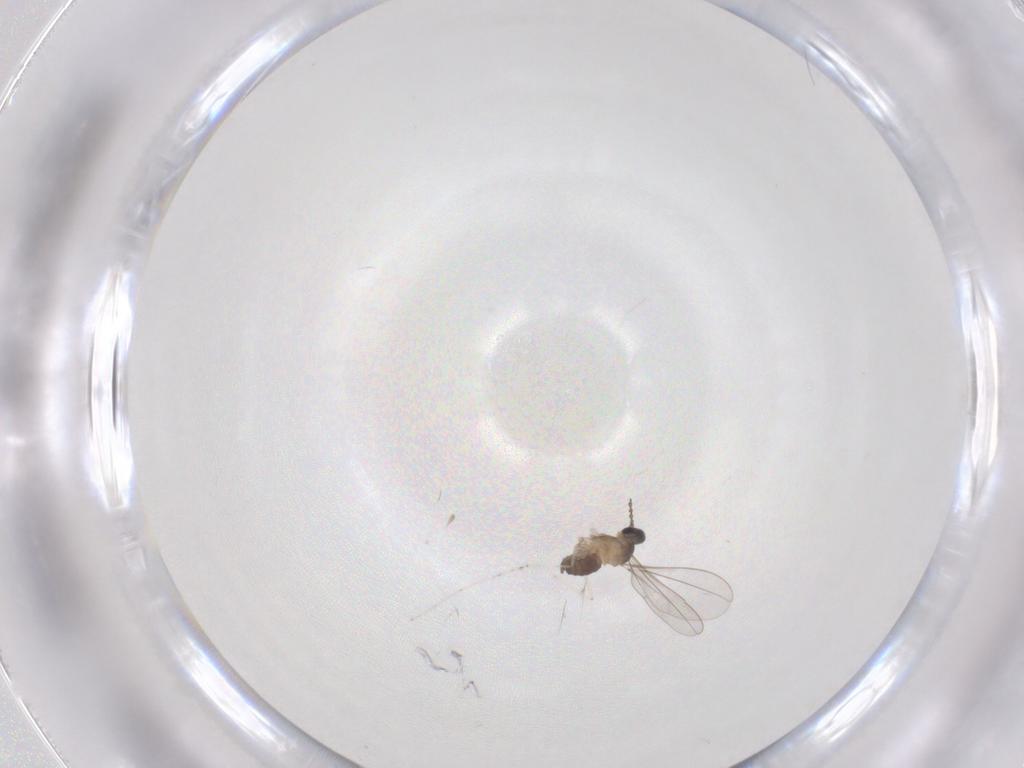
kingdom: Animalia
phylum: Arthropoda
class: Insecta
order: Diptera
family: Cecidomyiidae
